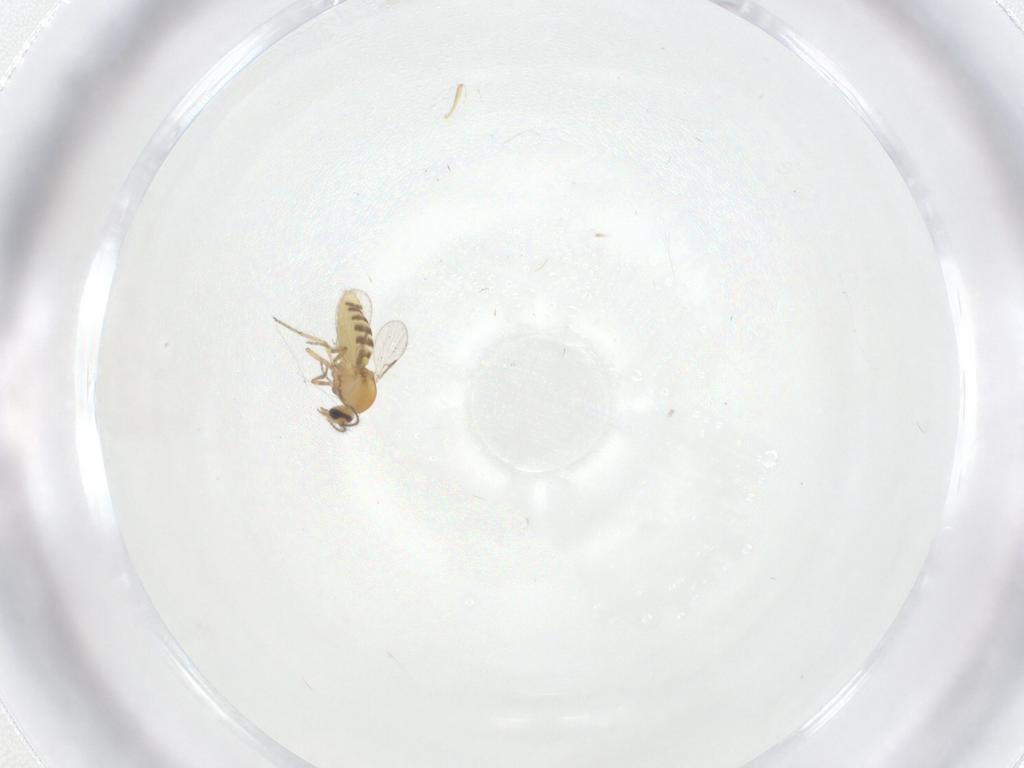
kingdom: Animalia
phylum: Arthropoda
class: Insecta
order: Diptera
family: Ceratopogonidae
